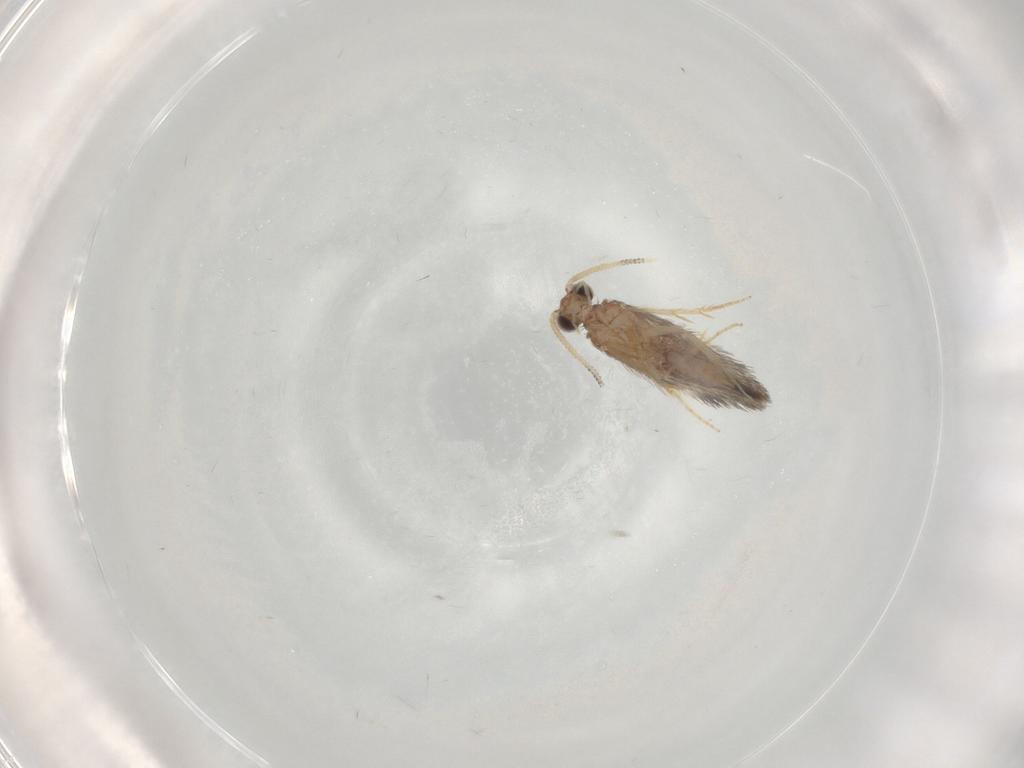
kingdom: Animalia
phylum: Arthropoda
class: Insecta
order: Trichoptera
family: Hydroptilidae
